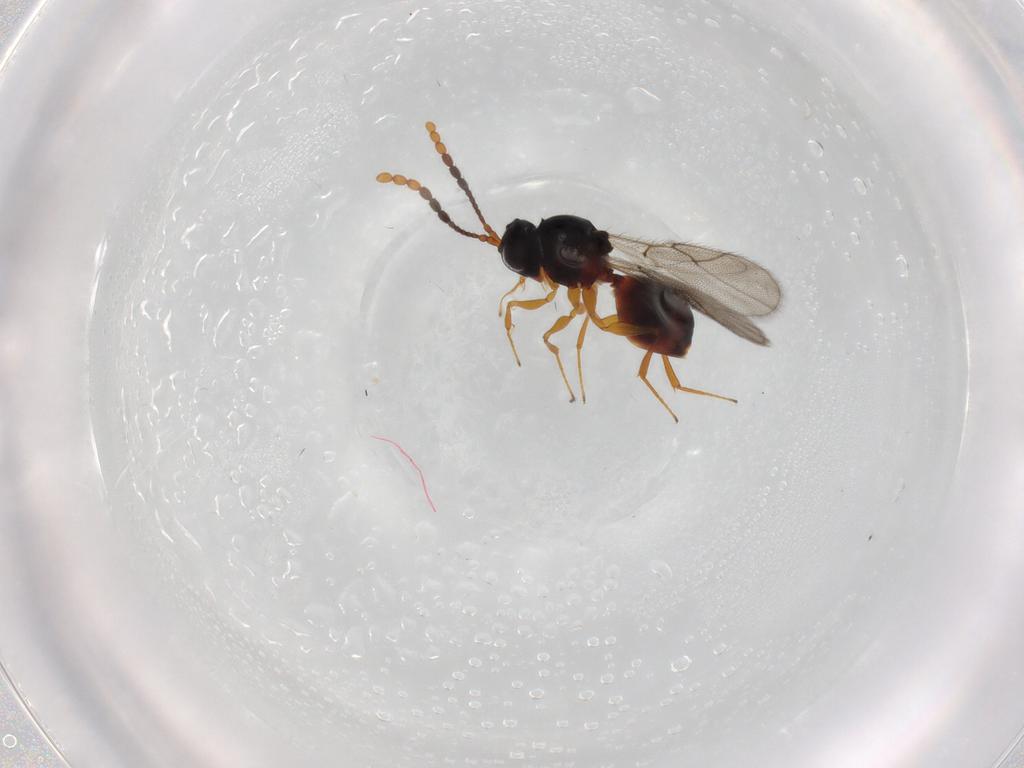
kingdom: Animalia
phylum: Arthropoda
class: Insecta
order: Hymenoptera
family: Figitidae
